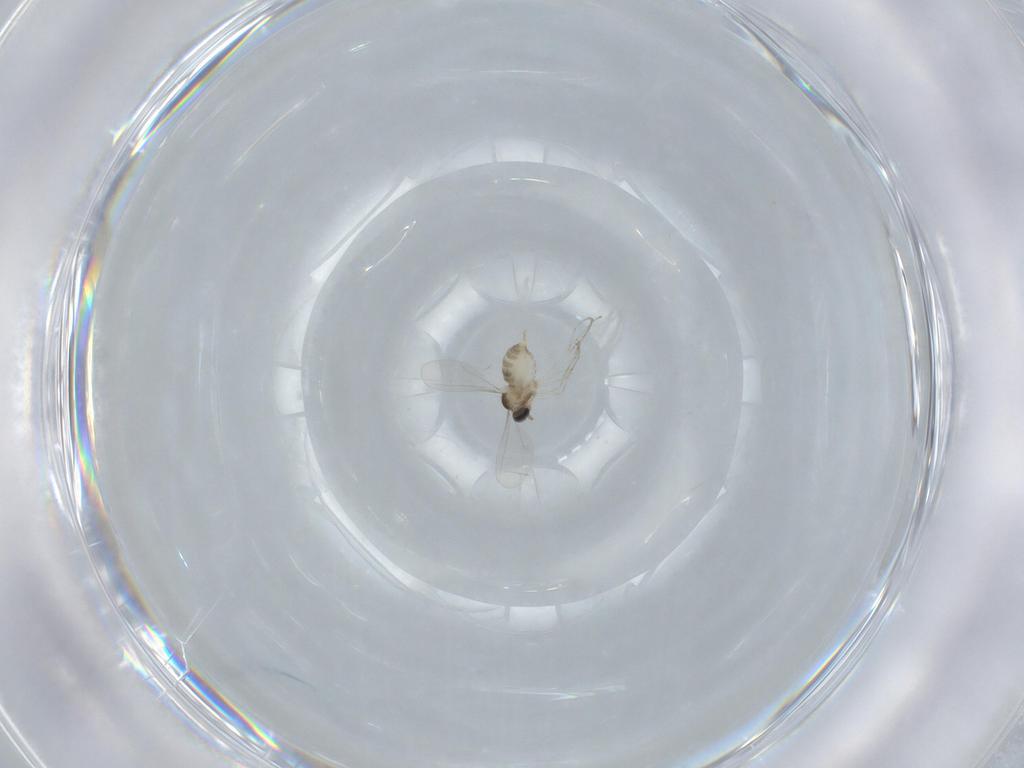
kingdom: Animalia
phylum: Arthropoda
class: Insecta
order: Diptera
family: Cecidomyiidae
